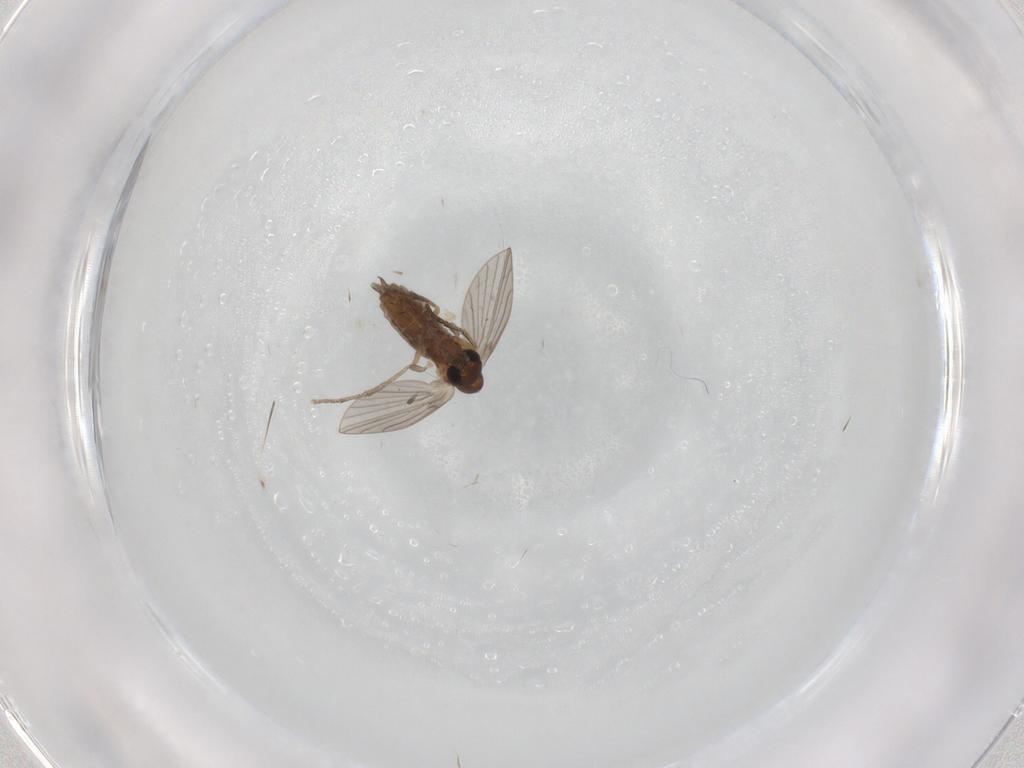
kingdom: Animalia
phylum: Arthropoda
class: Insecta
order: Diptera
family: Psychodidae
